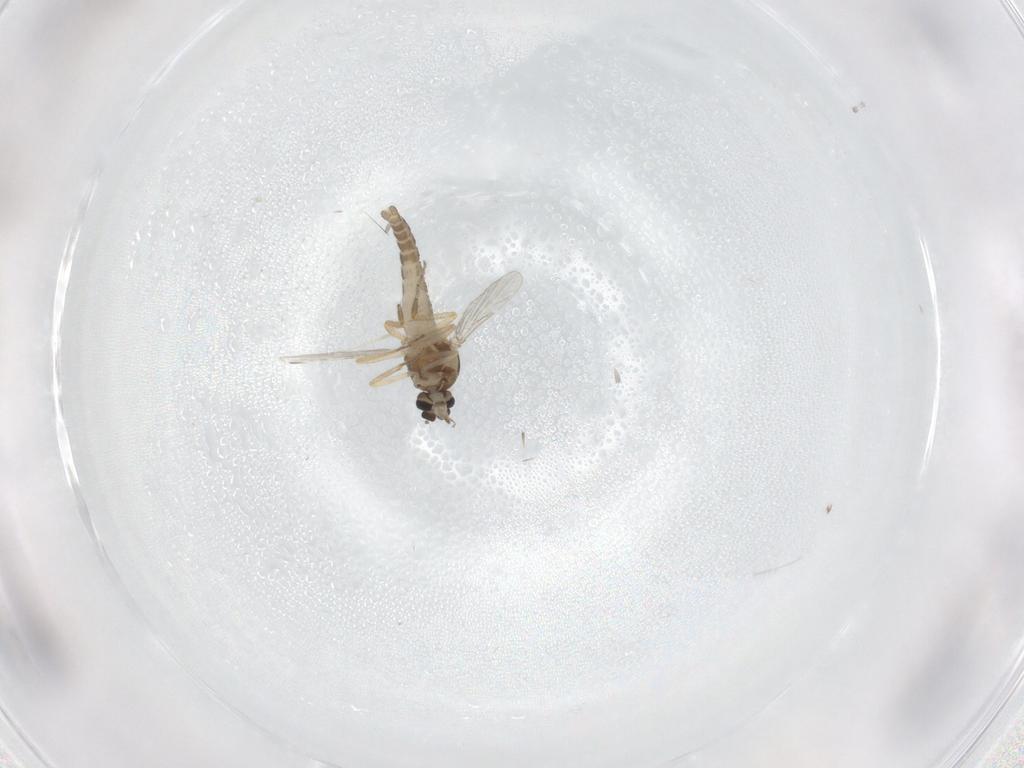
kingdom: Animalia
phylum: Arthropoda
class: Insecta
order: Diptera
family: Ceratopogonidae
